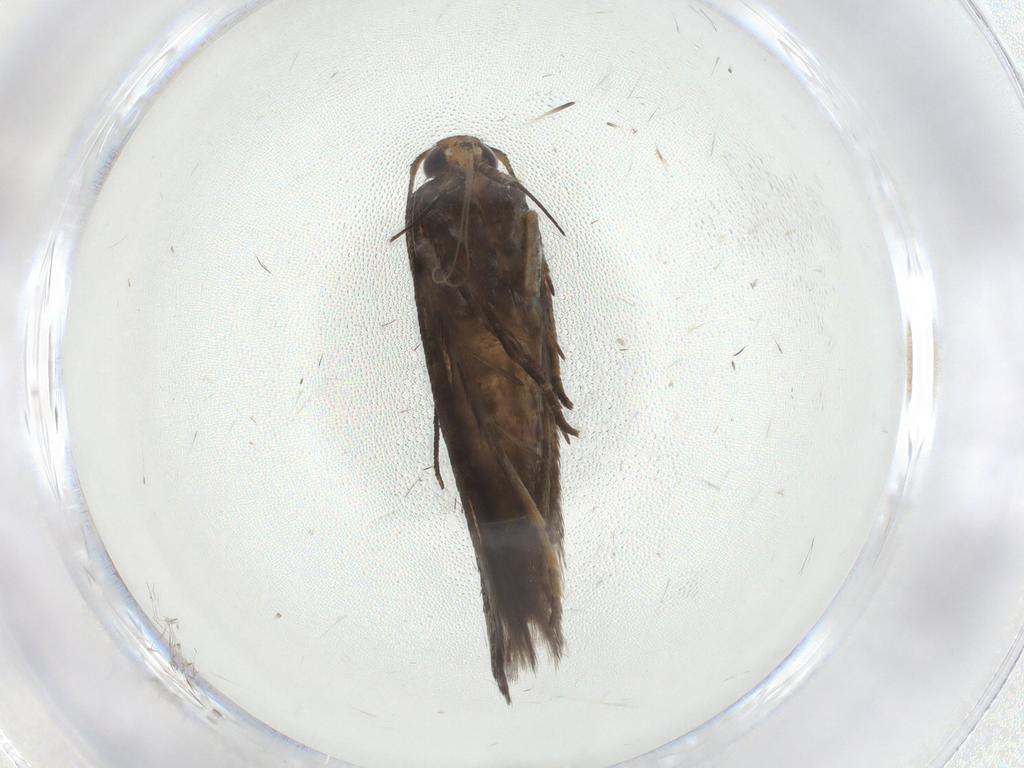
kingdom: Animalia
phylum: Arthropoda
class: Insecta
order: Lepidoptera
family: Gelechiidae
